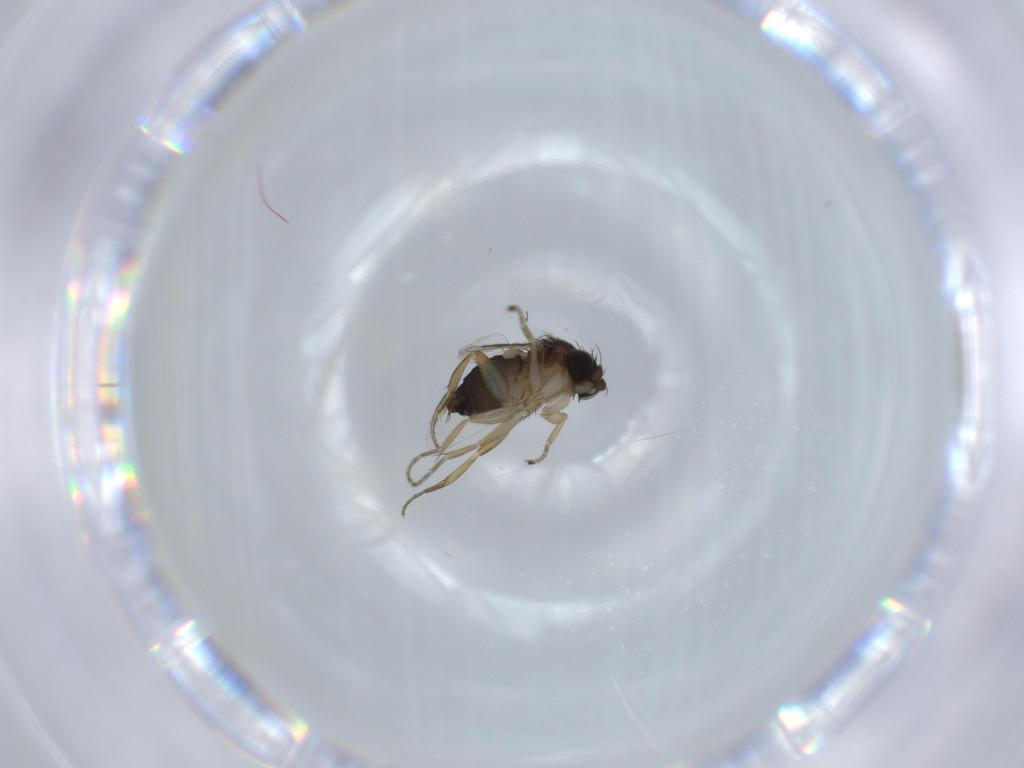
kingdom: Animalia
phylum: Arthropoda
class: Insecta
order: Diptera
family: Phoridae
